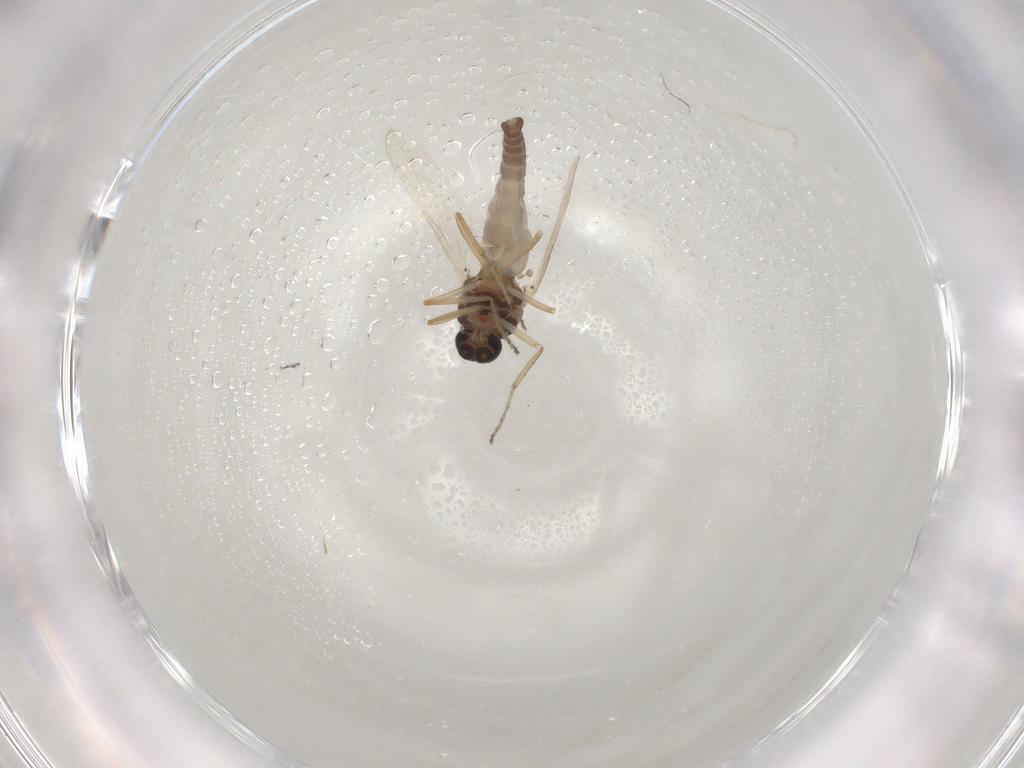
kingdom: Animalia
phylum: Arthropoda
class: Insecta
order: Diptera
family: Ceratopogonidae
